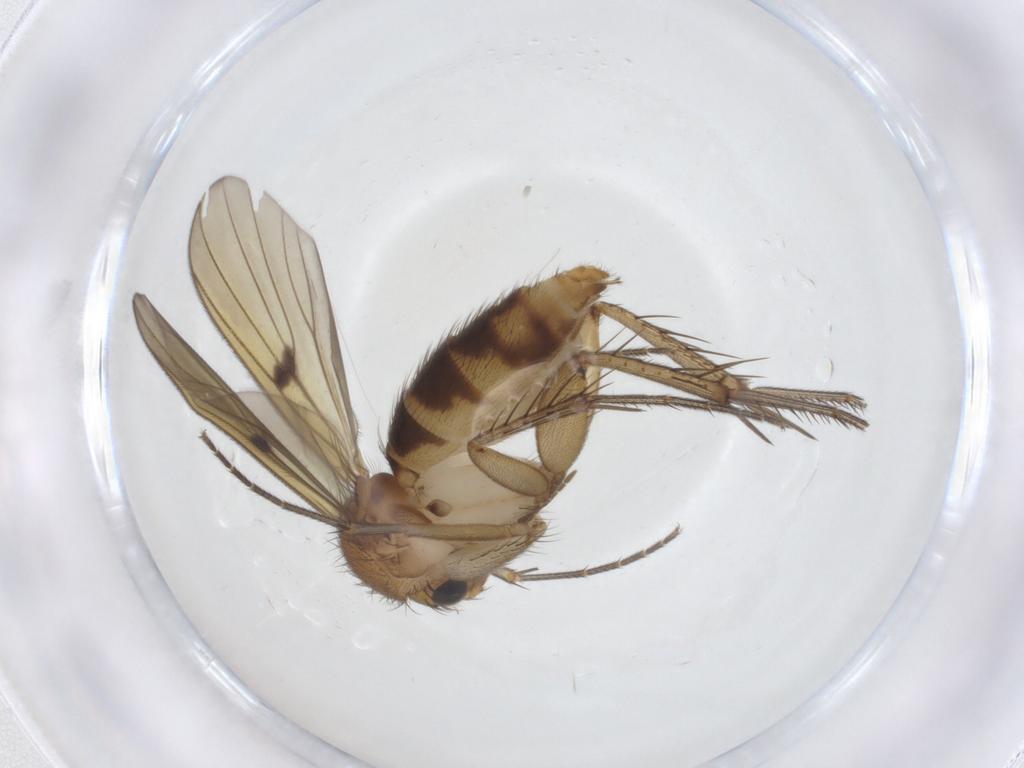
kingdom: Animalia
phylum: Arthropoda
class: Insecta
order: Diptera
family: Mycetophilidae
